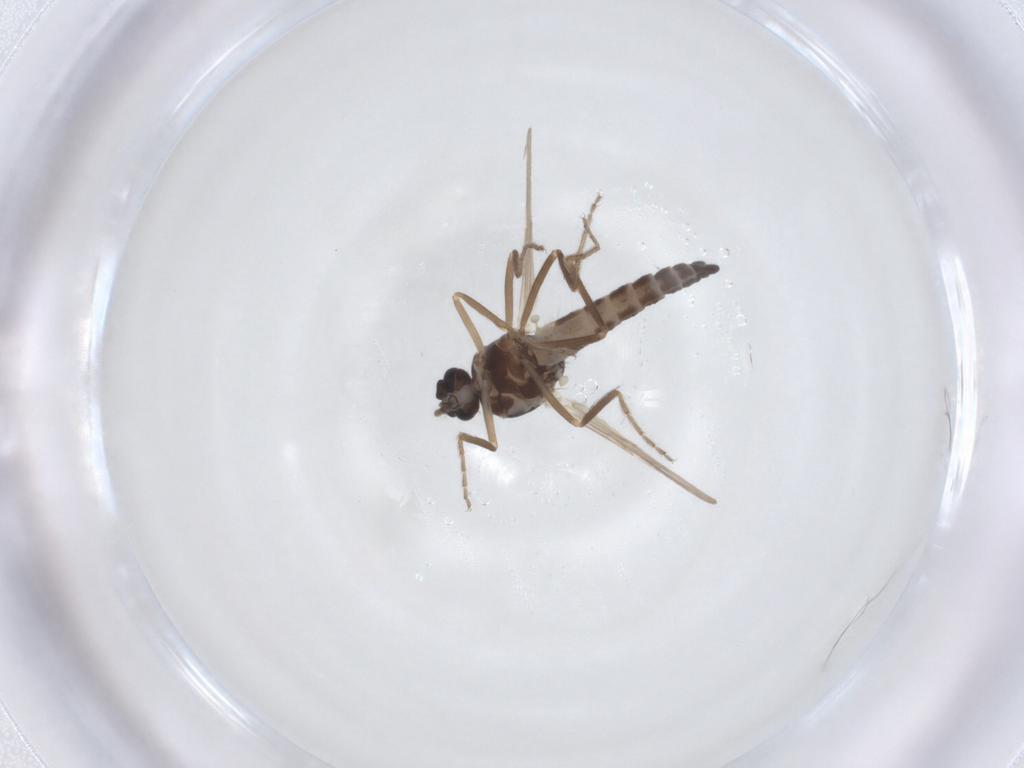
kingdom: Animalia
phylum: Arthropoda
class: Insecta
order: Diptera
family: Ceratopogonidae
